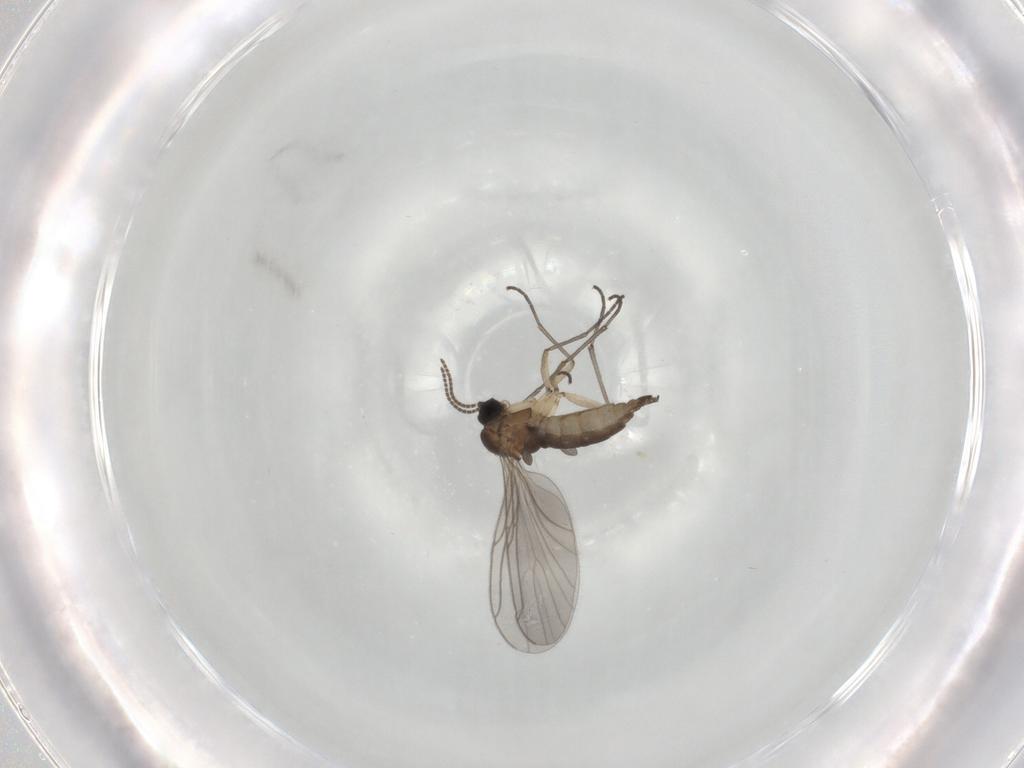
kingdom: Animalia
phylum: Arthropoda
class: Insecta
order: Diptera
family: Sciaridae
